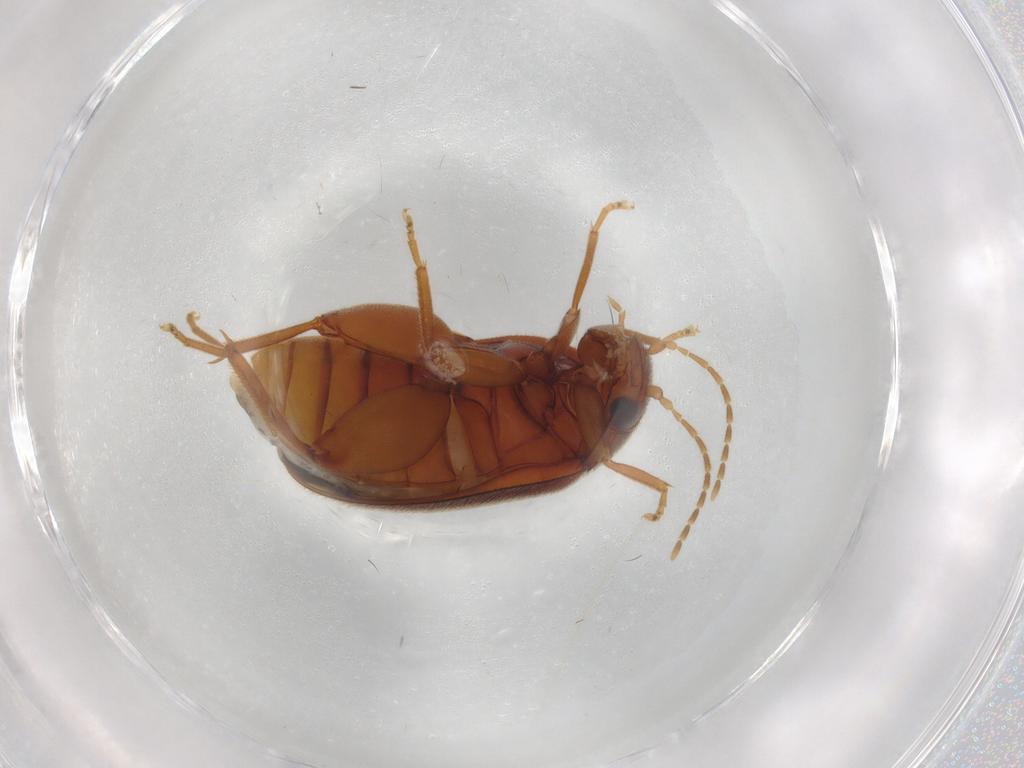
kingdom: Animalia
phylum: Arthropoda
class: Insecta
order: Coleoptera
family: Scirtidae
